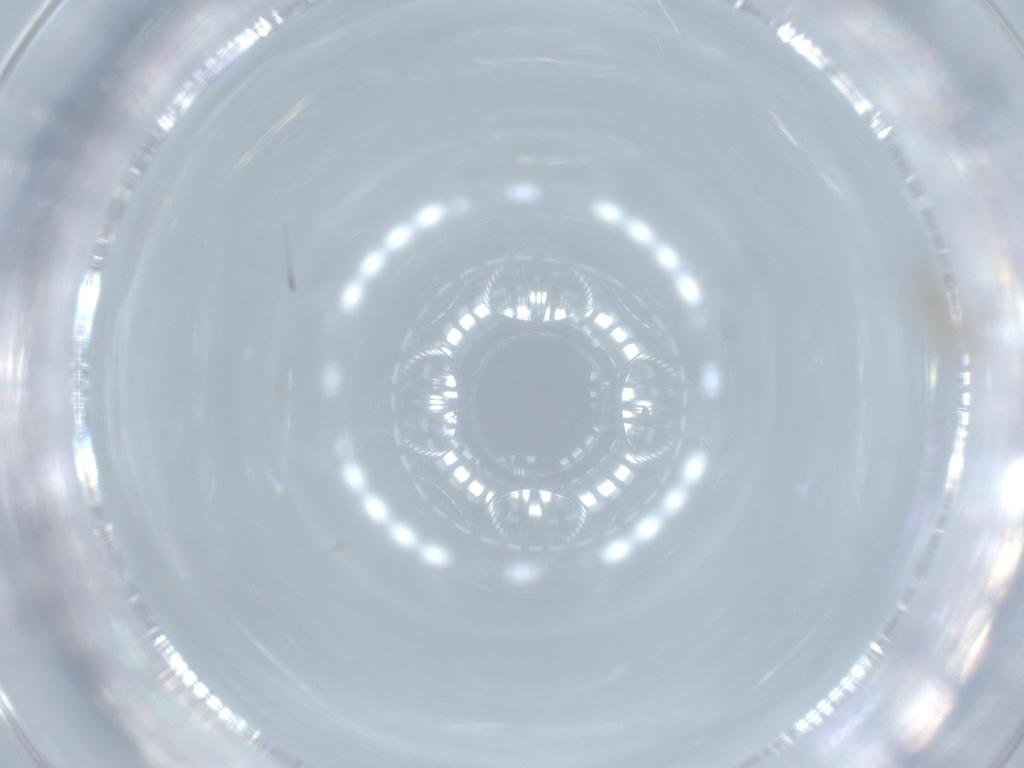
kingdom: Animalia
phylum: Arthropoda
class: Insecta
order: Diptera
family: Cecidomyiidae
